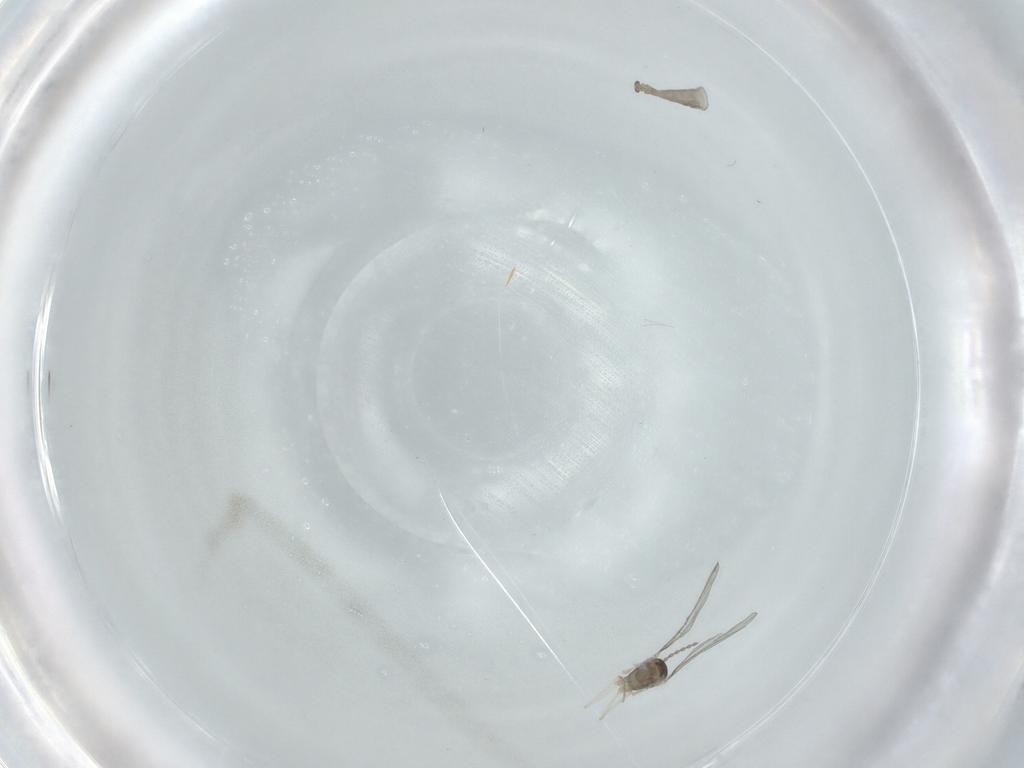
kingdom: Animalia
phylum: Arthropoda
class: Insecta
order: Diptera
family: Cecidomyiidae
